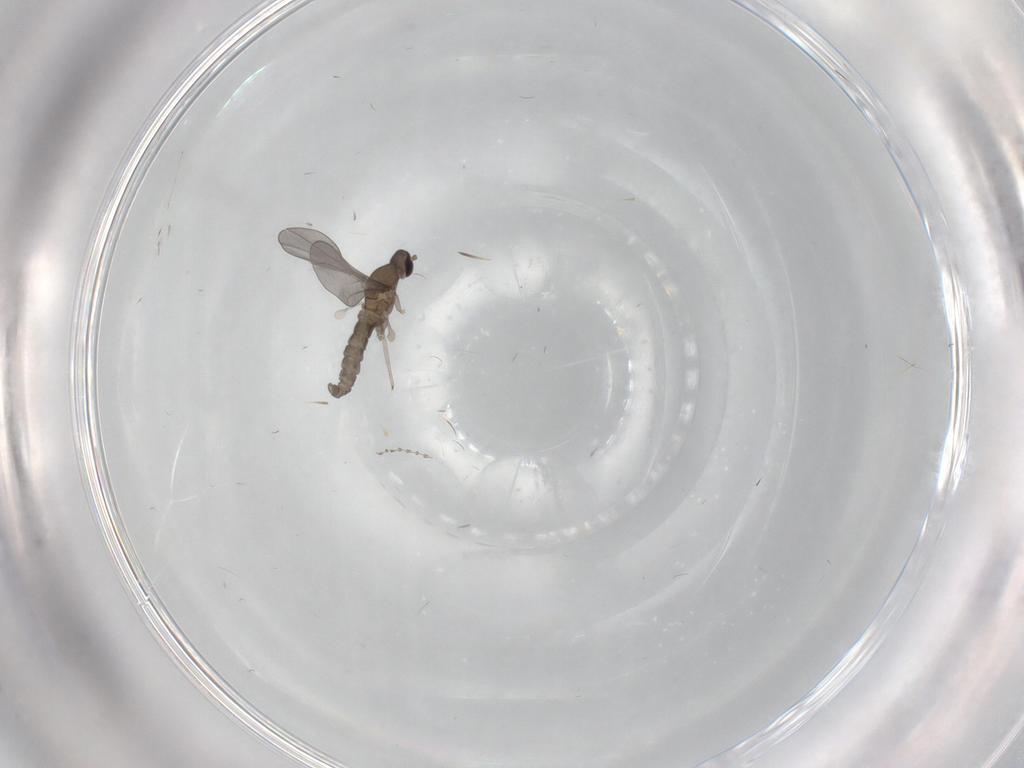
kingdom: Animalia
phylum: Arthropoda
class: Insecta
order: Diptera
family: Cecidomyiidae
